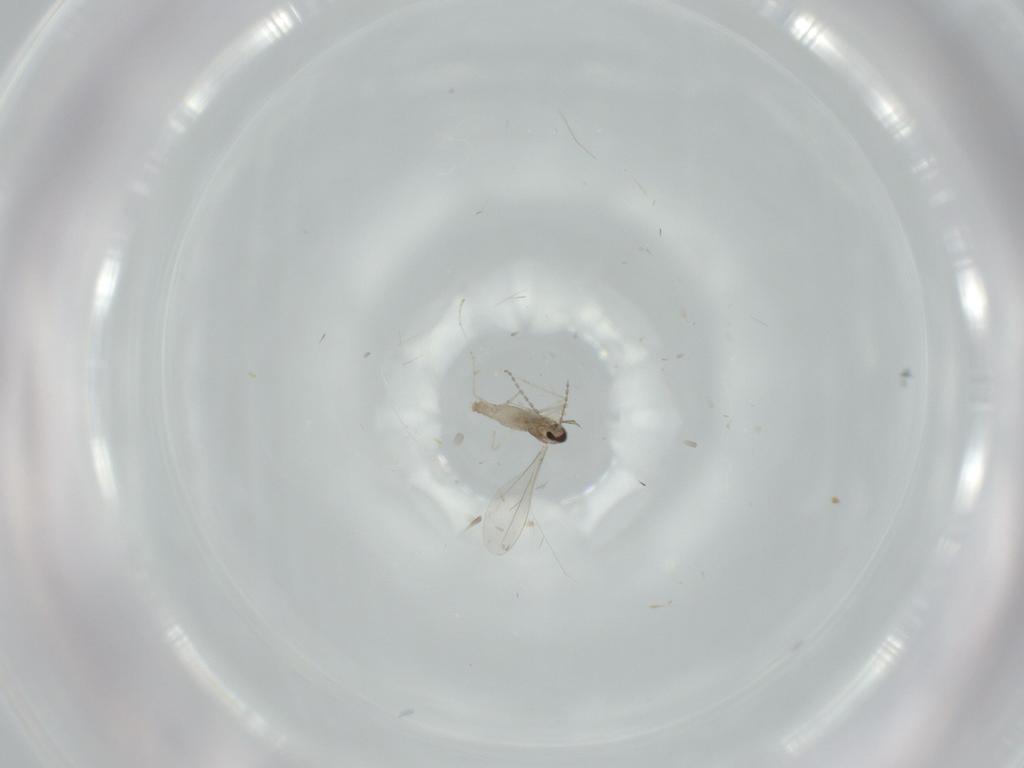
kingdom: Animalia
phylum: Arthropoda
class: Insecta
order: Diptera
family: Cecidomyiidae
